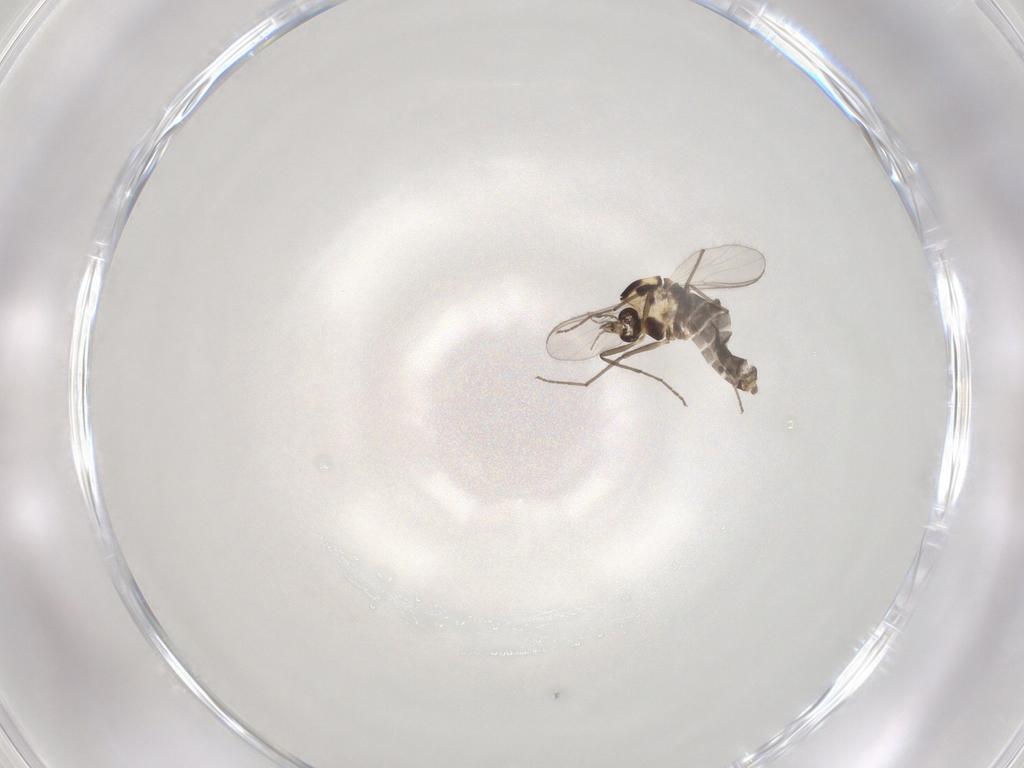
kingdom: Animalia
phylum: Arthropoda
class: Insecta
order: Diptera
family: Chironomidae
